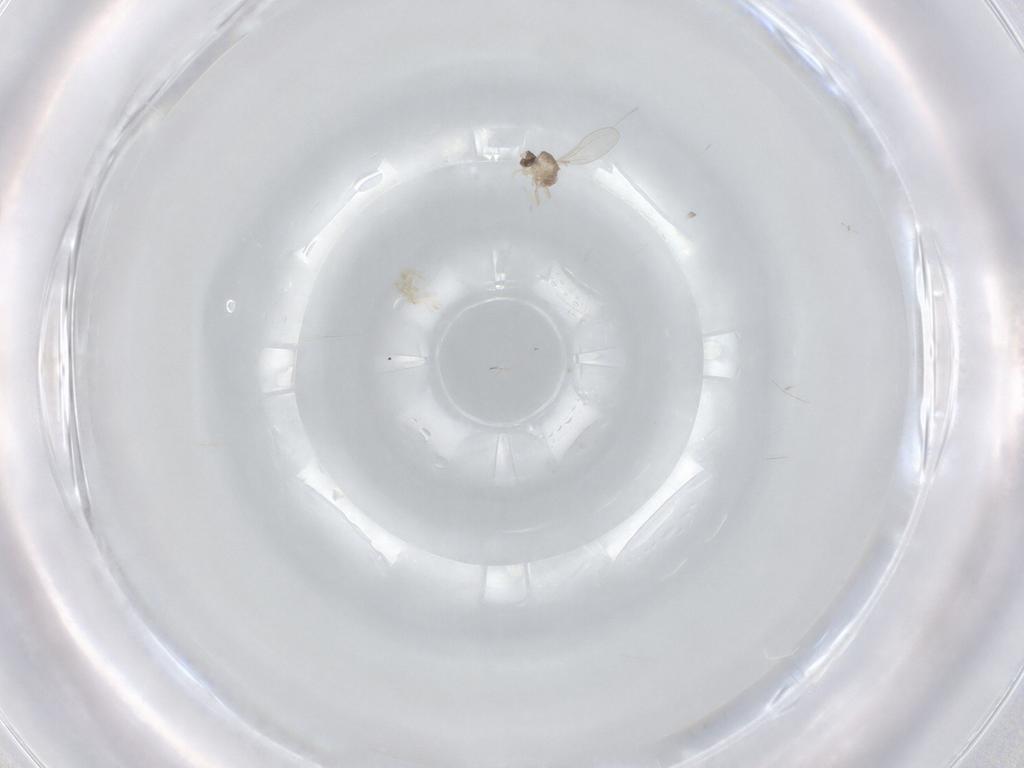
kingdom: Animalia
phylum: Arthropoda
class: Insecta
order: Diptera
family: Cecidomyiidae
